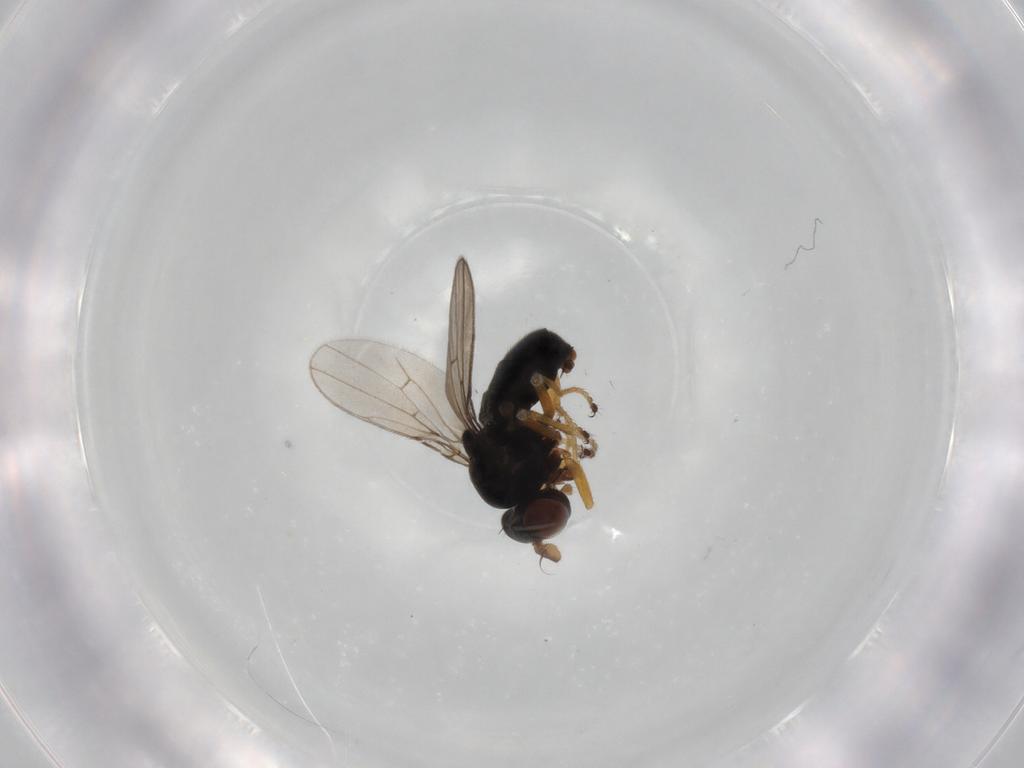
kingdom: Animalia
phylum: Arthropoda
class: Insecta
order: Diptera
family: Ephydridae
